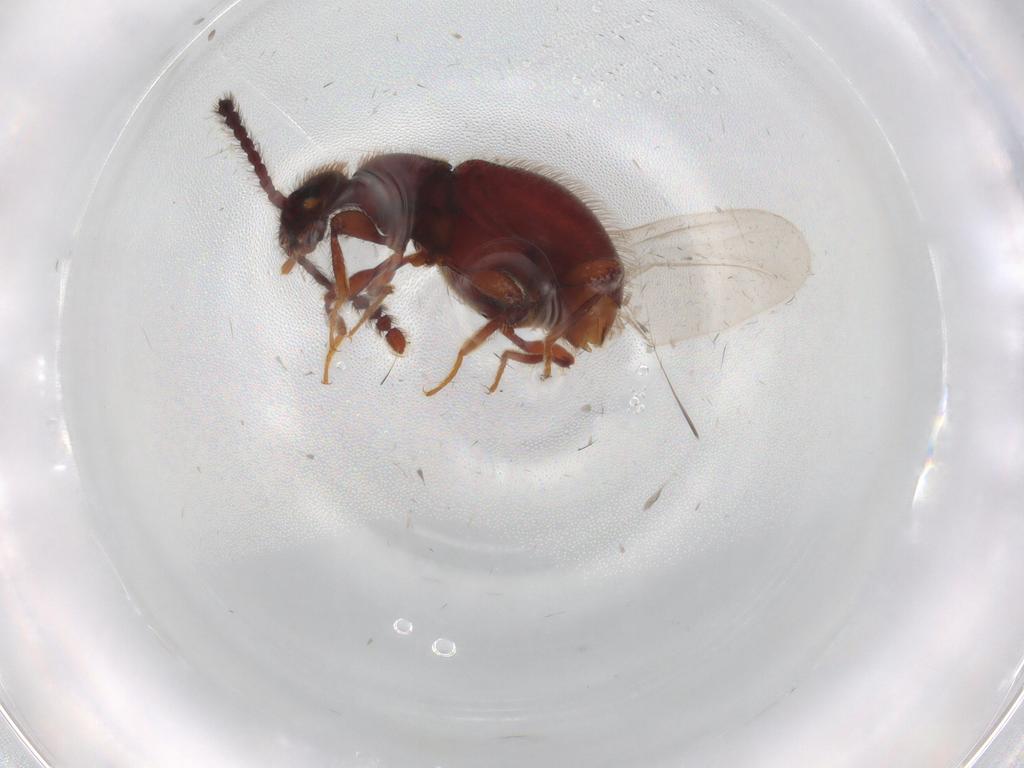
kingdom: Animalia
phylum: Arthropoda
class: Insecta
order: Coleoptera
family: Staphylinidae
